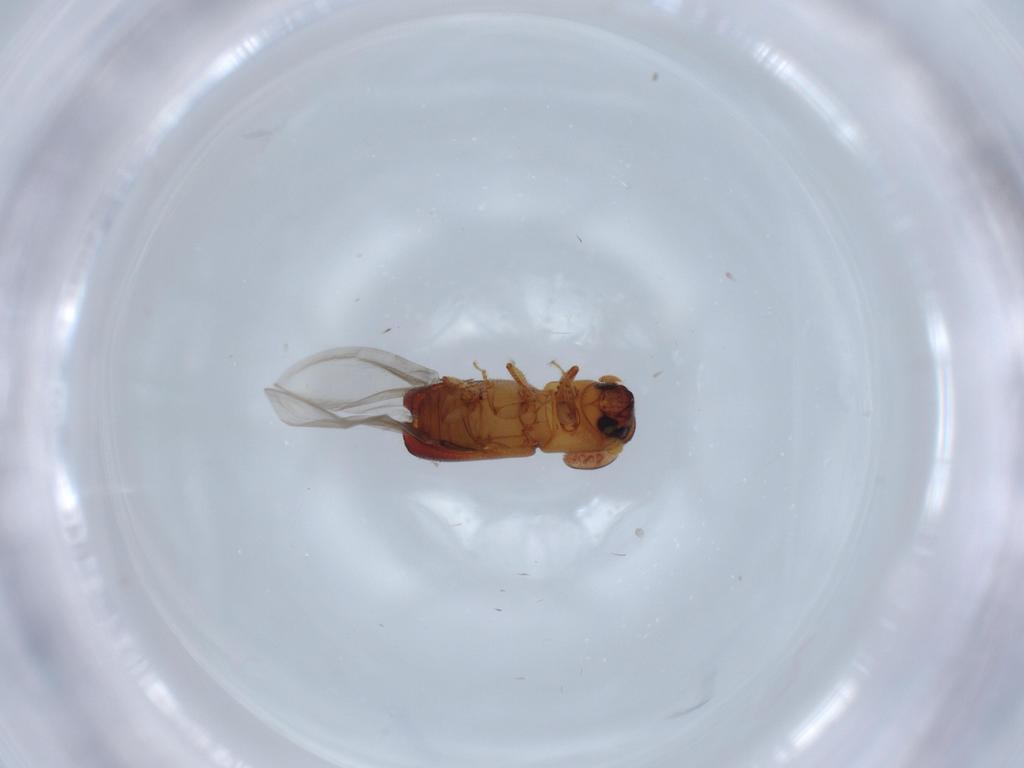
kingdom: Animalia
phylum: Arthropoda
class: Insecta
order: Coleoptera
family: Curculionidae
